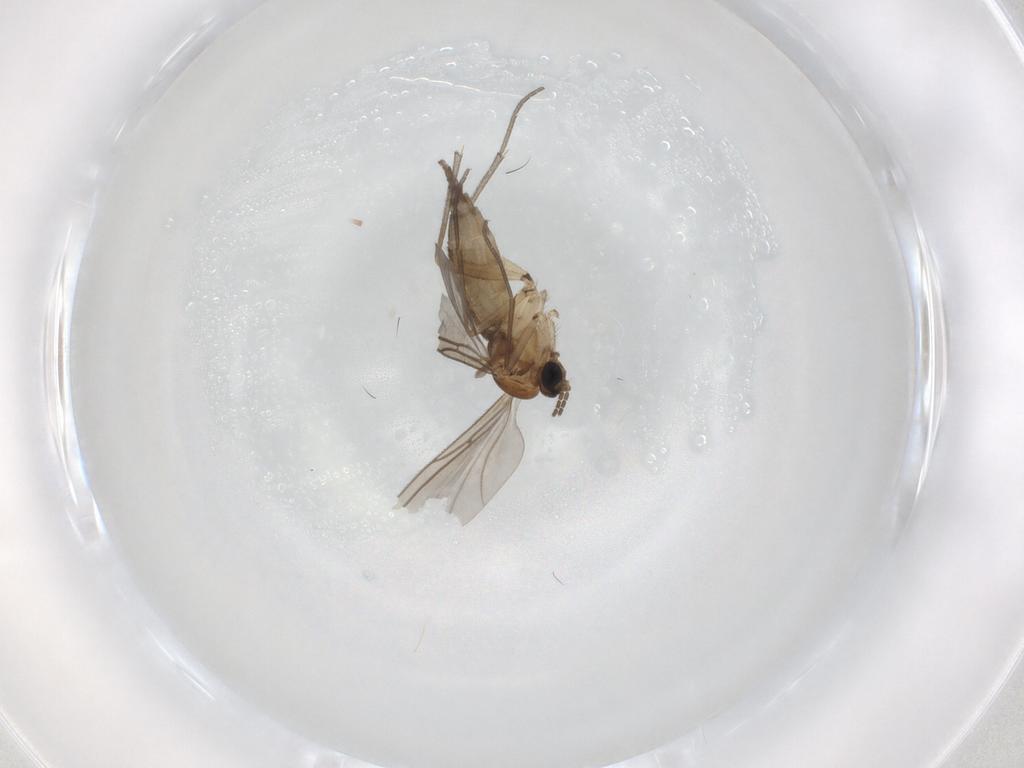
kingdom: Animalia
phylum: Arthropoda
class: Insecta
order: Diptera
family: Sciaridae
